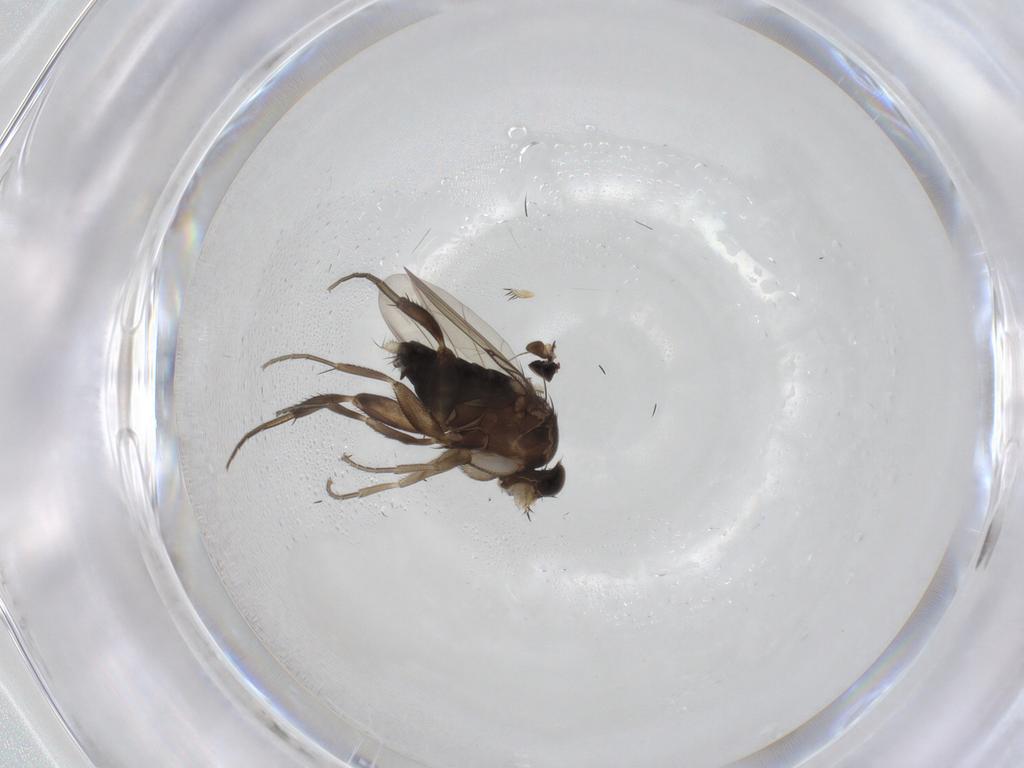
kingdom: Animalia
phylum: Arthropoda
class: Insecta
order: Diptera
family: Phoridae
